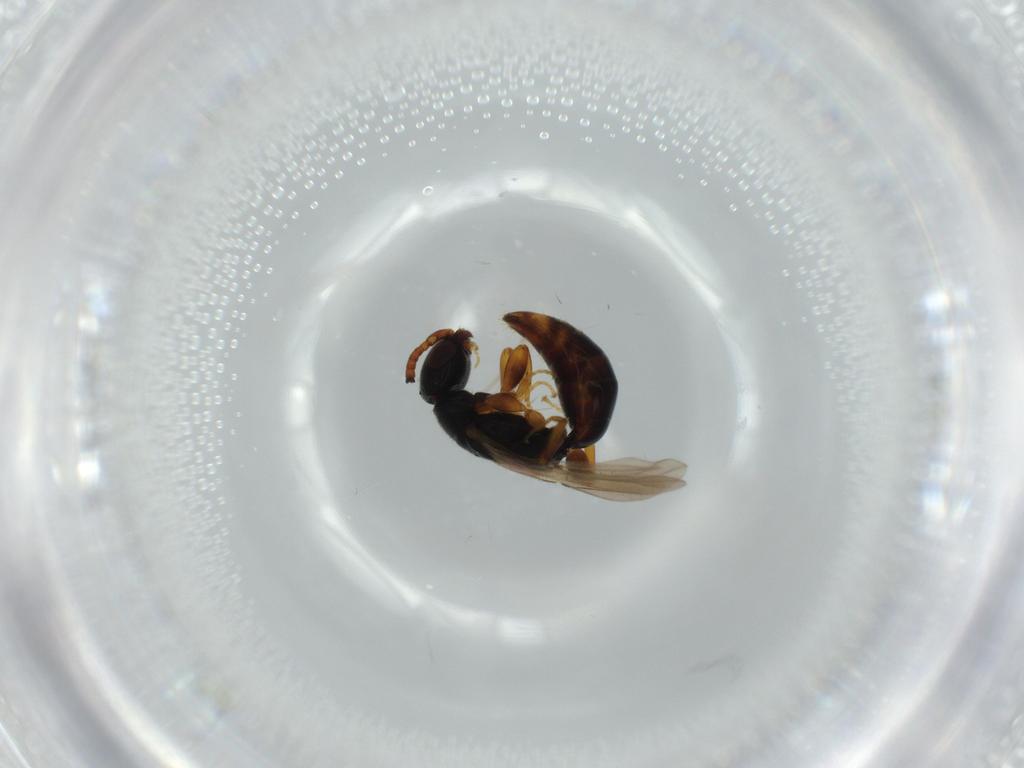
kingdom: Animalia
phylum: Arthropoda
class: Insecta
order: Hymenoptera
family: Bethylidae
